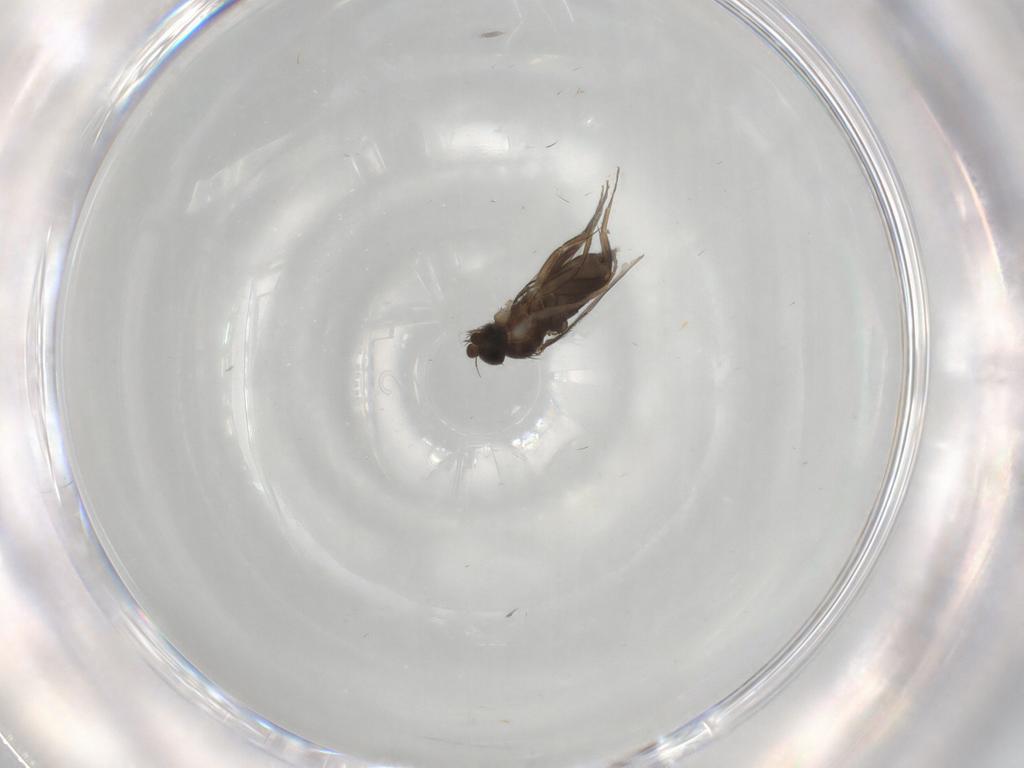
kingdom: Animalia
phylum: Arthropoda
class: Insecta
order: Diptera
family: Phoridae
